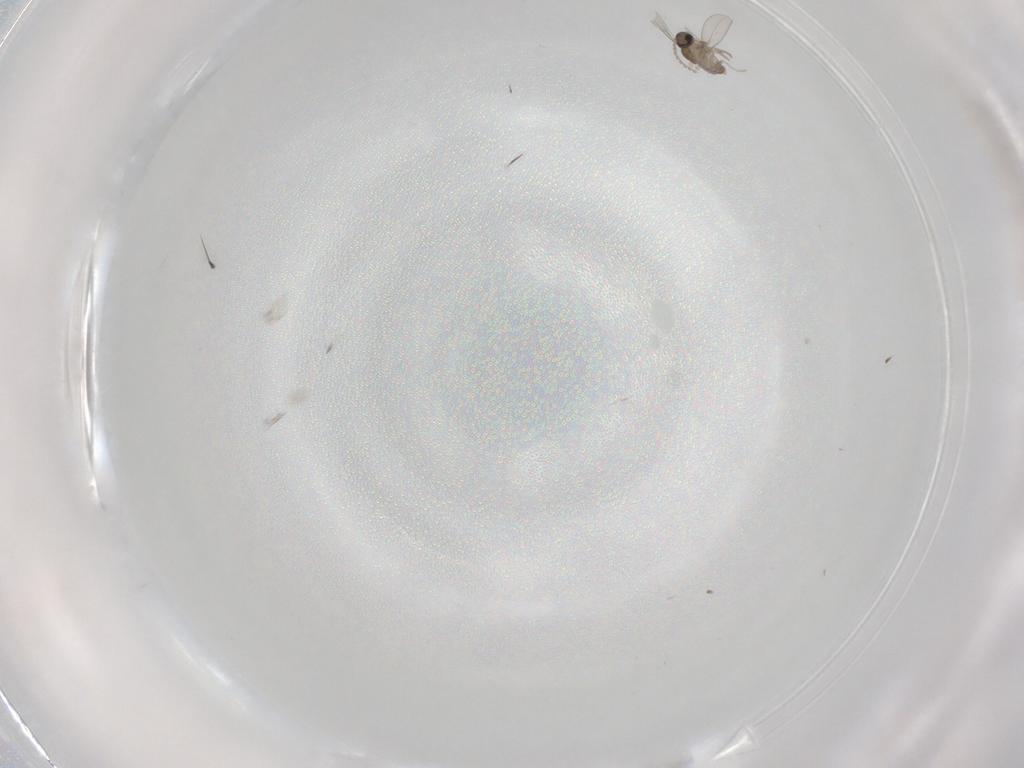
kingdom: Animalia
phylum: Arthropoda
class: Insecta
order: Diptera
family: Phoridae
